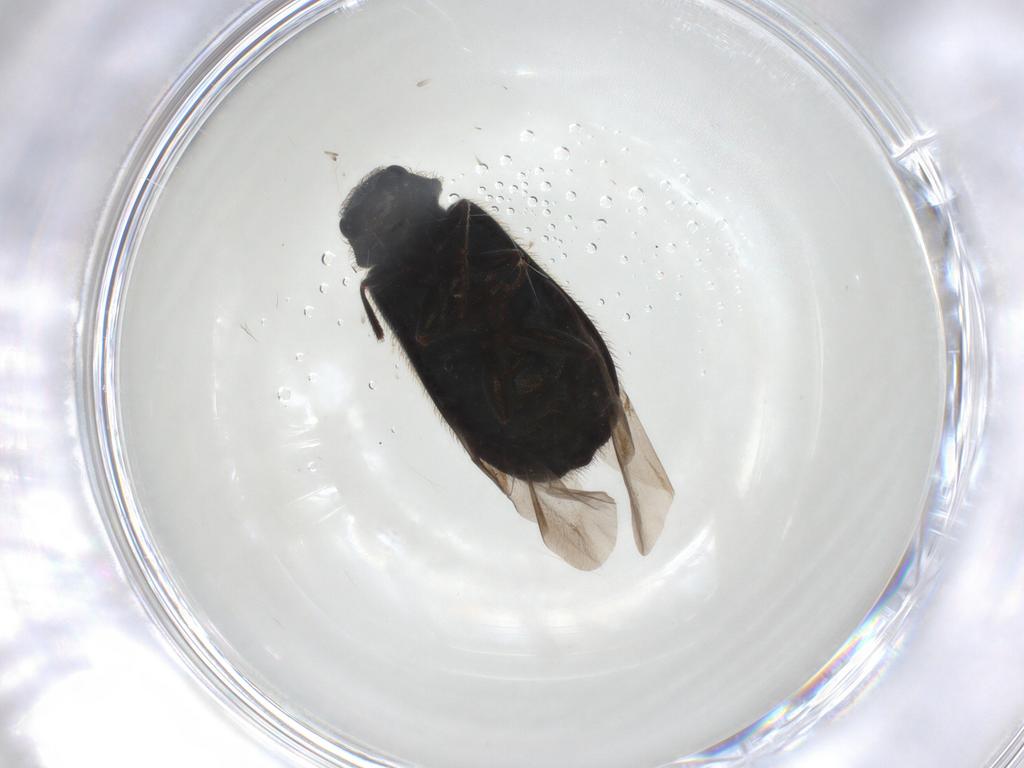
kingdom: Animalia
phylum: Arthropoda
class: Insecta
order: Coleoptera
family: Melyridae
